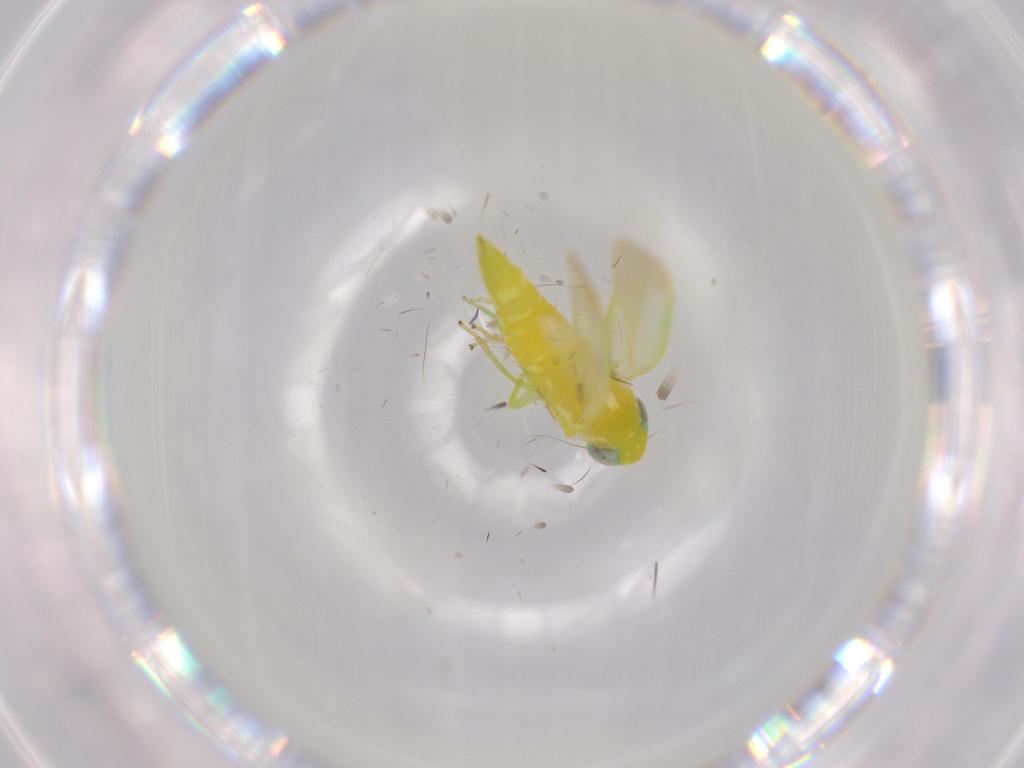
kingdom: Animalia
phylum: Arthropoda
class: Insecta
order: Hemiptera
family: Cicadellidae
